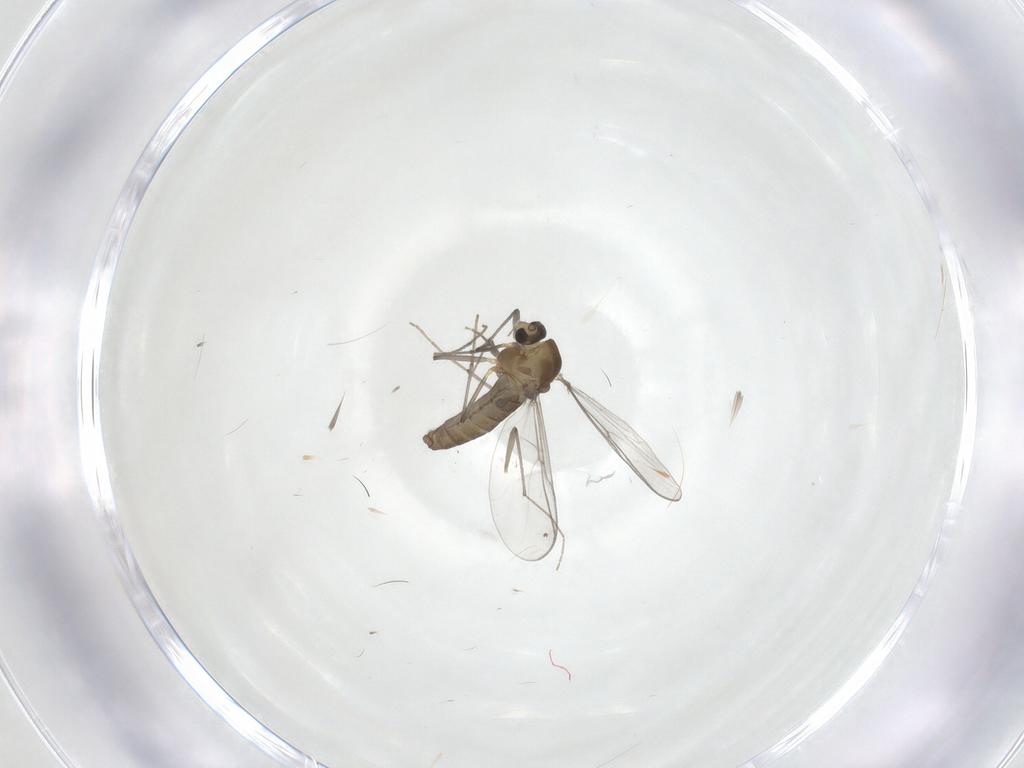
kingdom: Animalia
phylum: Arthropoda
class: Insecta
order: Diptera
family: Chironomidae
